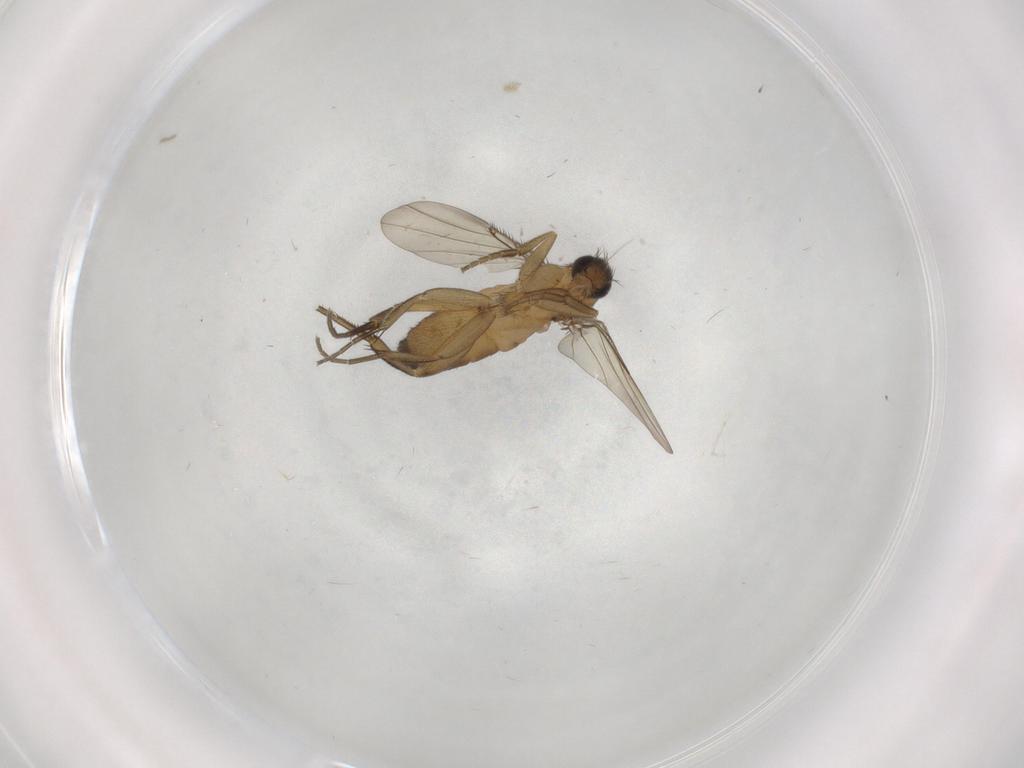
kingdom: Animalia
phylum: Arthropoda
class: Insecta
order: Diptera
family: Phoridae
